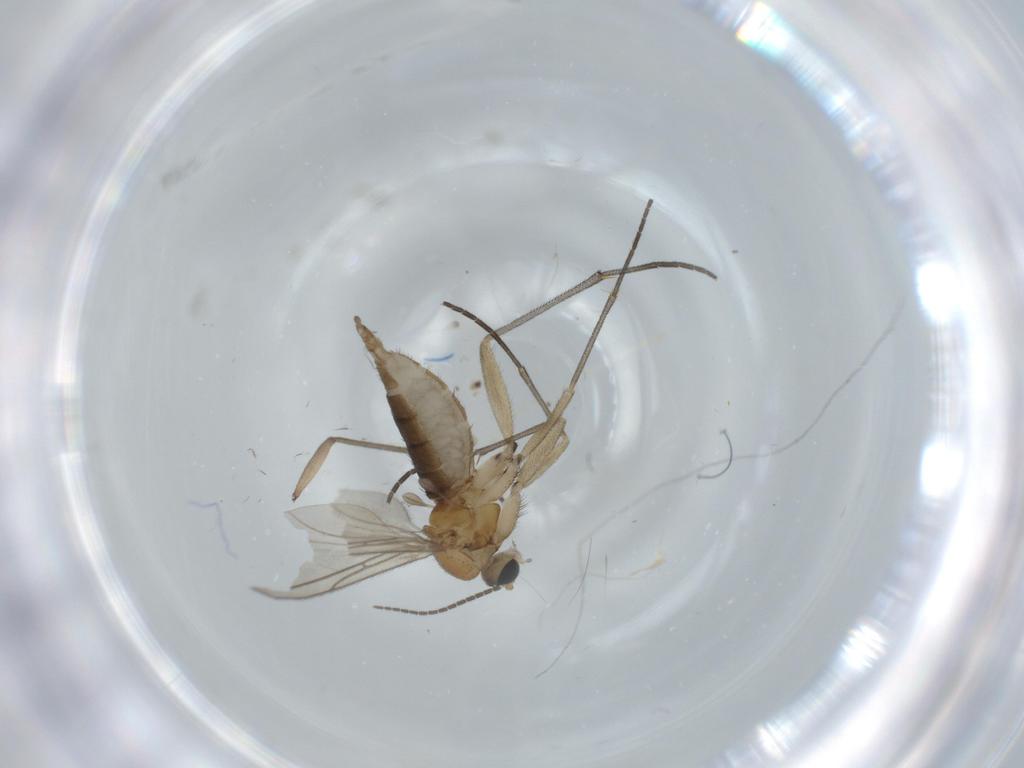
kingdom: Animalia
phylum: Arthropoda
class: Insecta
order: Diptera
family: Sciaridae
